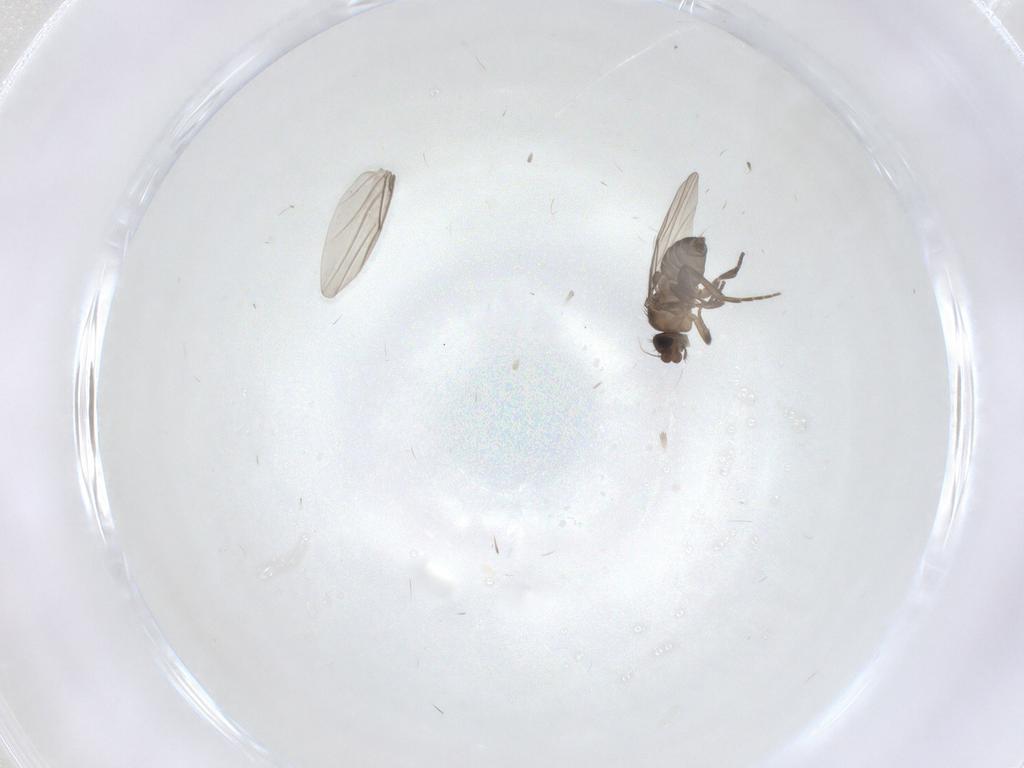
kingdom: Animalia
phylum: Arthropoda
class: Insecta
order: Diptera
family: Phoridae
